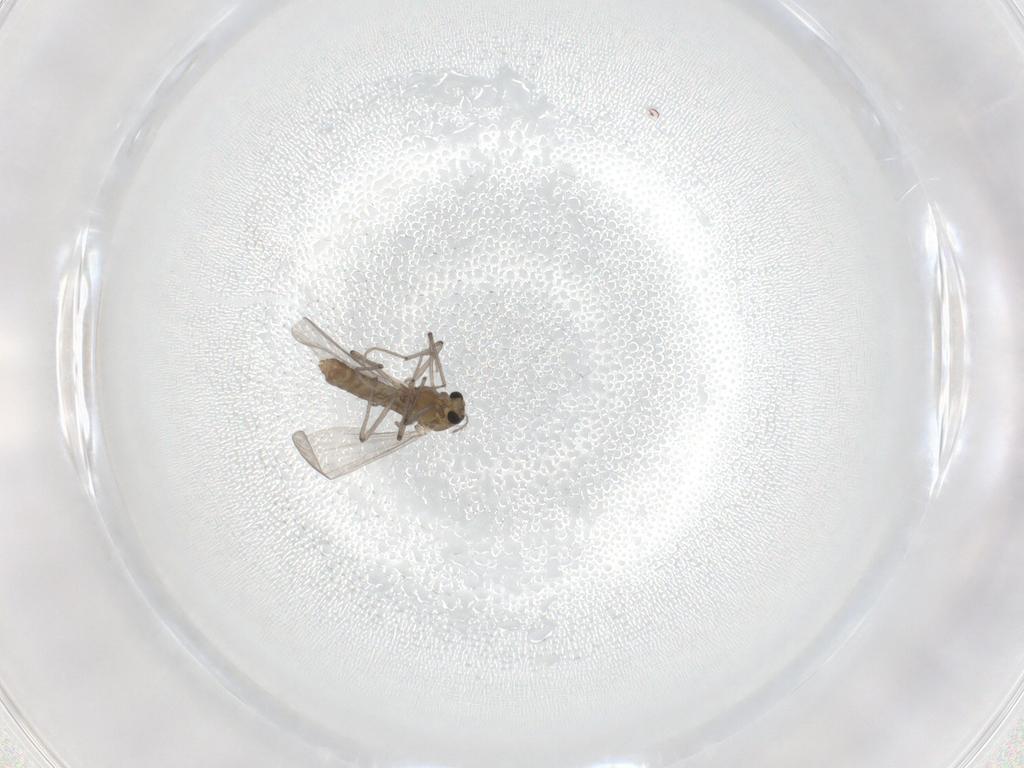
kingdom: Animalia
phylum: Arthropoda
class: Insecta
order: Diptera
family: Chironomidae
